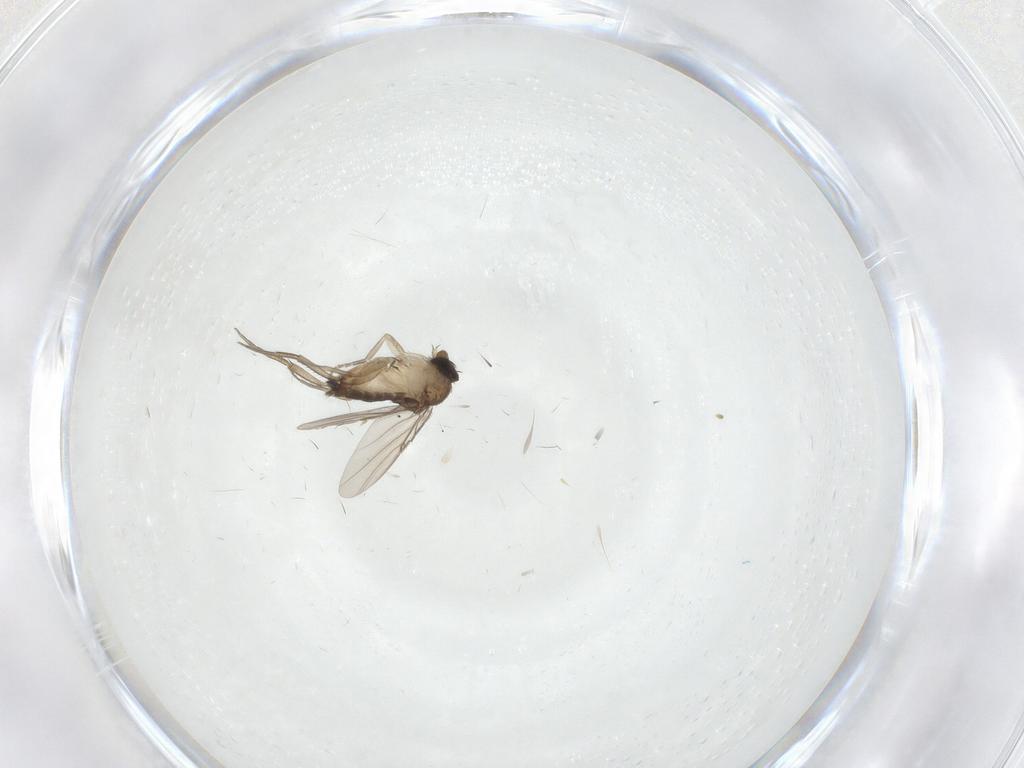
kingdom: Animalia
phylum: Arthropoda
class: Insecta
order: Diptera
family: Phoridae
